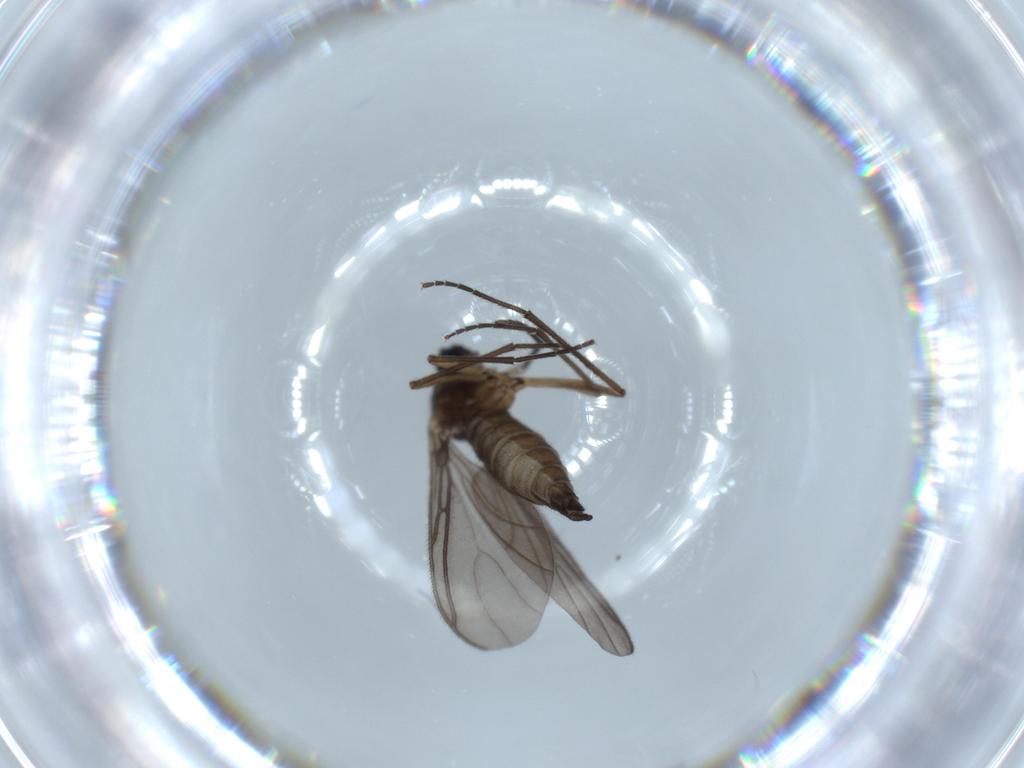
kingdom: Animalia
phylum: Arthropoda
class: Insecta
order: Diptera
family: Sciaridae
